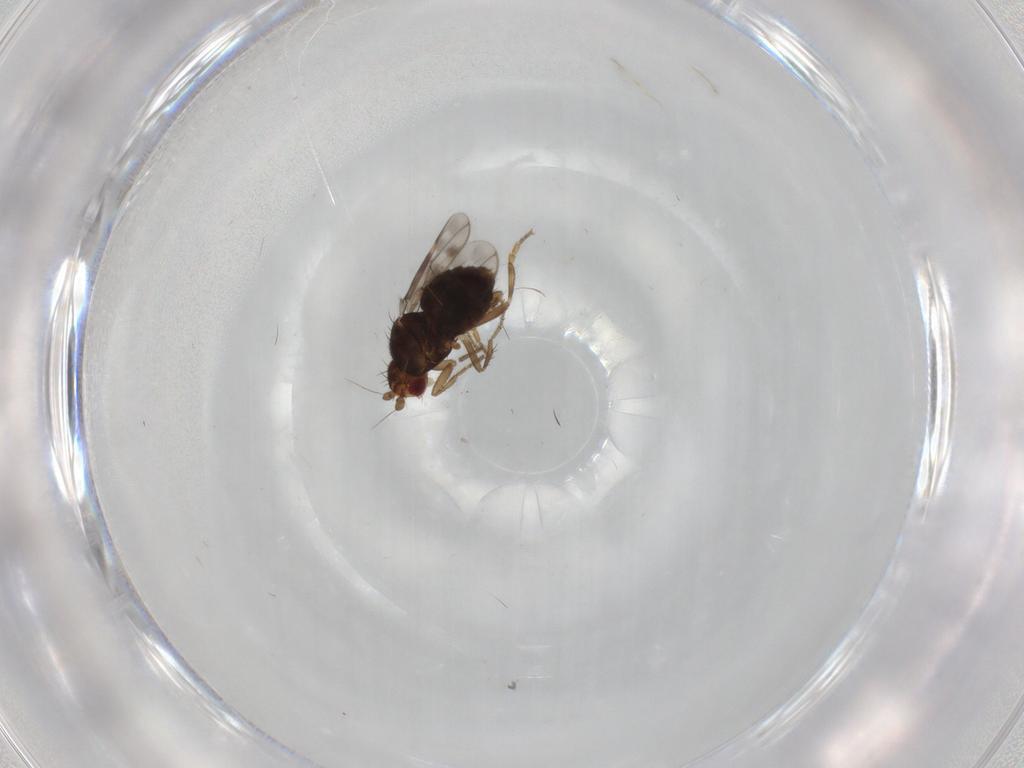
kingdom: Animalia
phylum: Arthropoda
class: Insecta
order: Diptera
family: Sphaeroceridae
